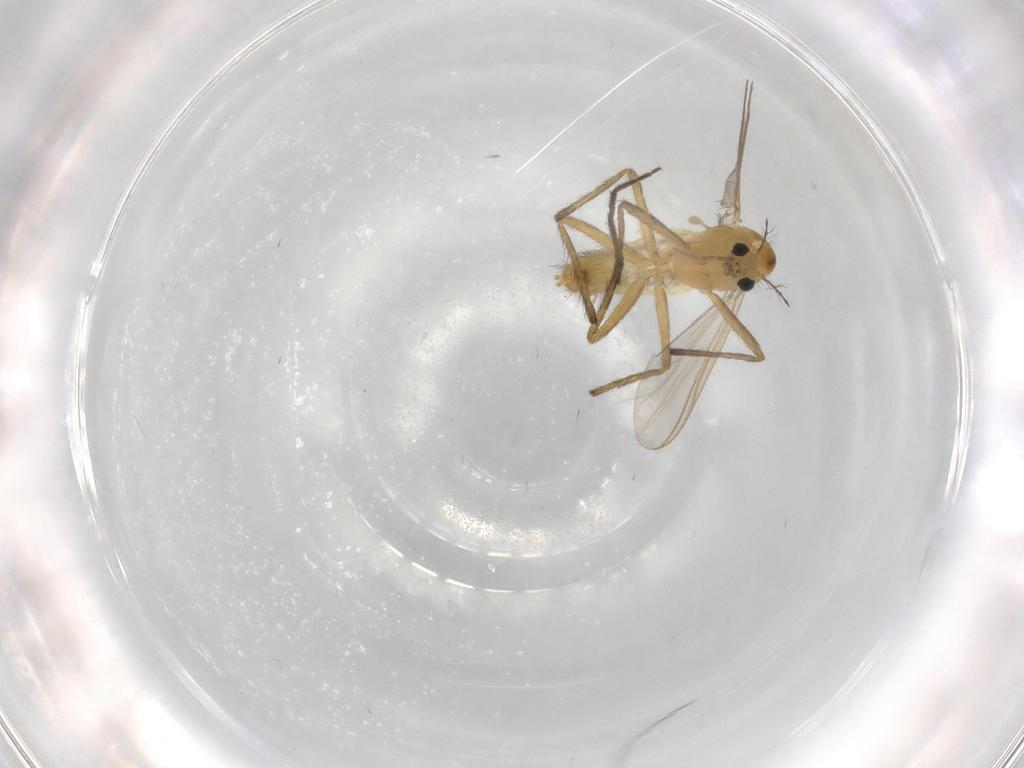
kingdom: Animalia
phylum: Arthropoda
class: Insecta
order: Diptera
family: Chironomidae
